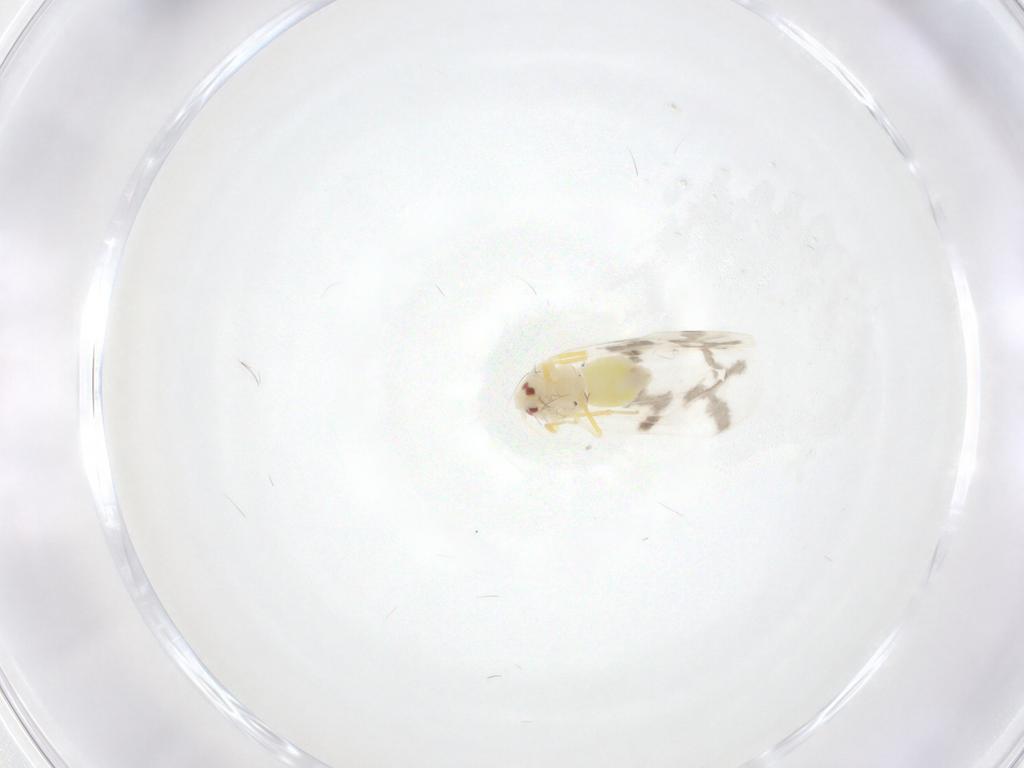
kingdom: Animalia
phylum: Arthropoda
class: Insecta
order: Hemiptera
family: Aleyrodidae
